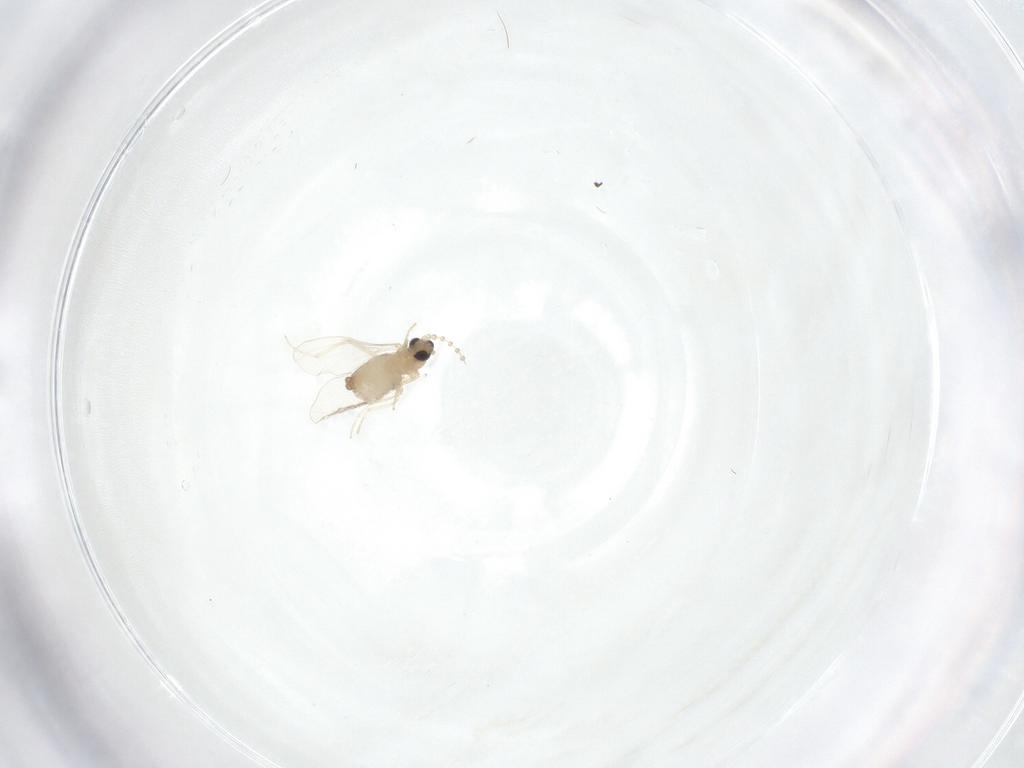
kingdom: Animalia
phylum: Arthropoda
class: Insecta
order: Diptera
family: Cecidomyiidae
